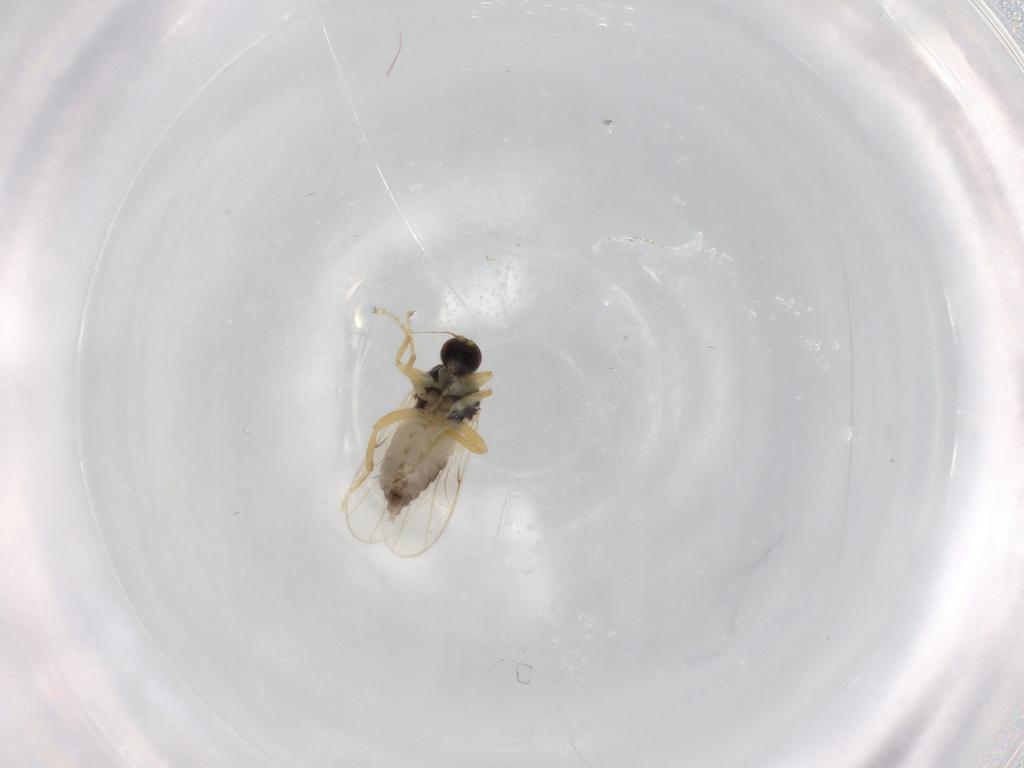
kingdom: Animalia
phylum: Arthropoda
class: Insecta
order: Diptera
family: Hybotidae
